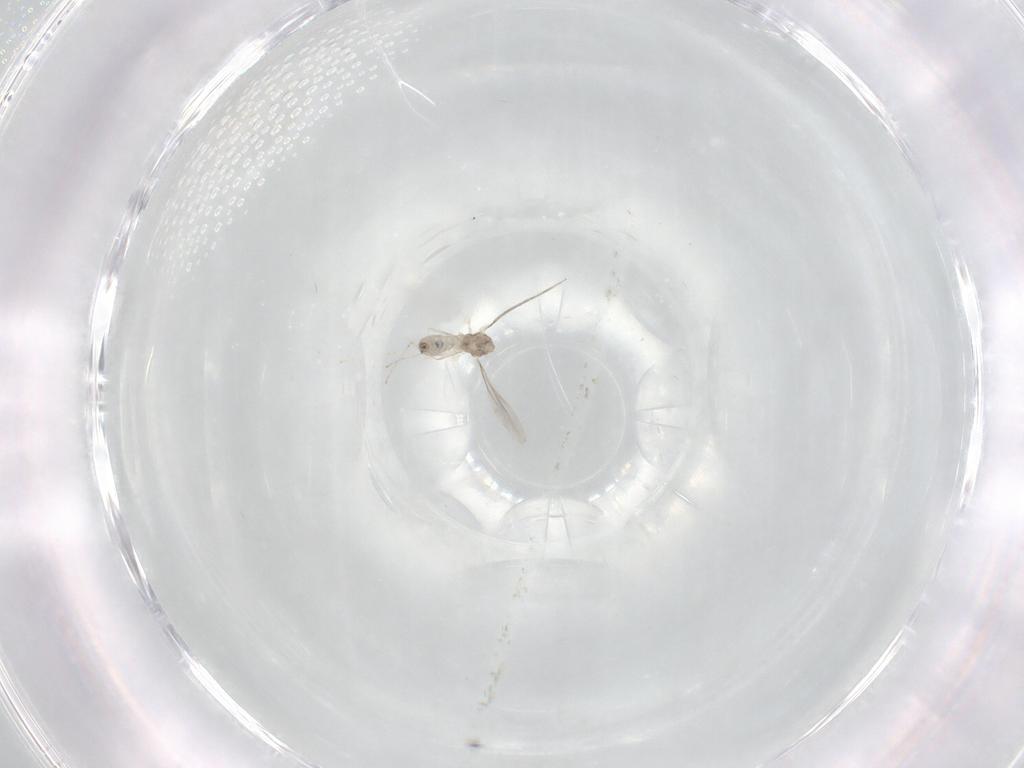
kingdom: Animalia
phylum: Arthropoda
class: Insecta
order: Diptera
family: Cecidomyiidae
